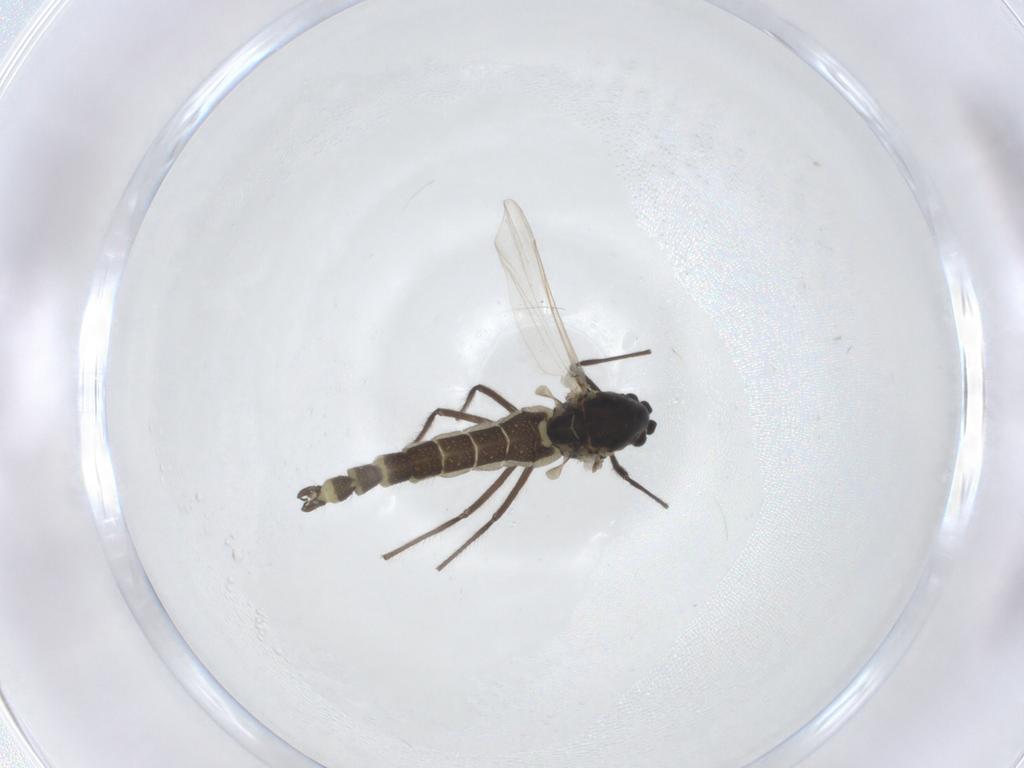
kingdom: Animalia
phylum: Arthropoda
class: Insecta
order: Diptera
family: Chironomidae
